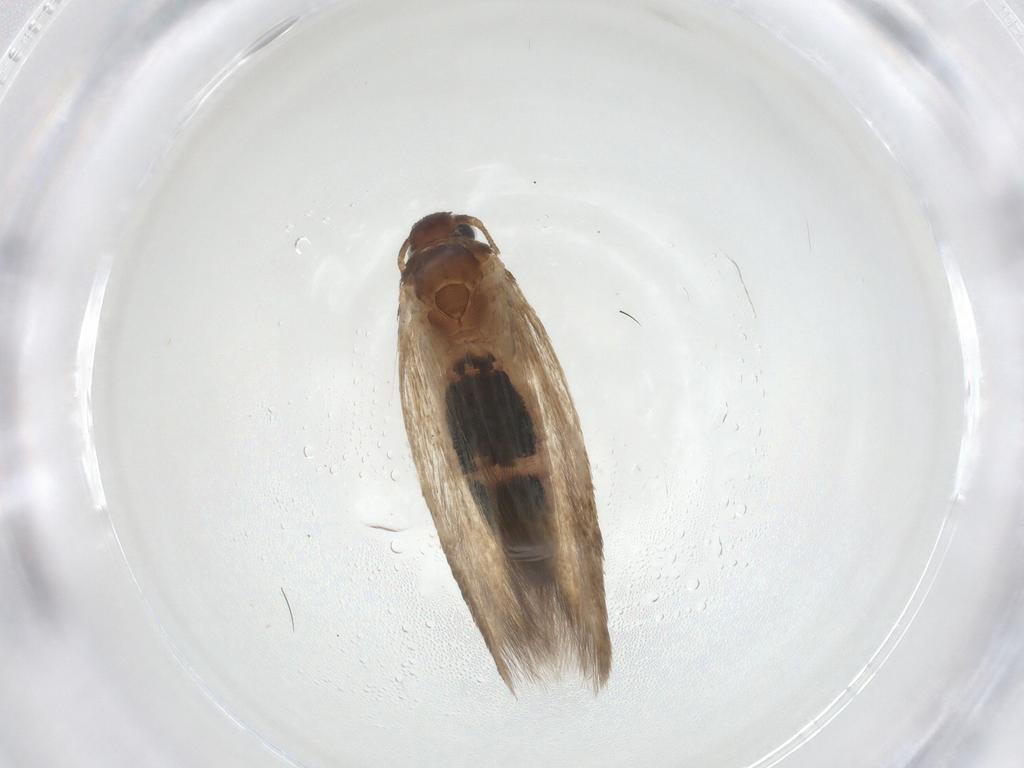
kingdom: Animalia
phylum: Arthropoda
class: Insecta
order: Lepidoptera
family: Cosmopterigidae
